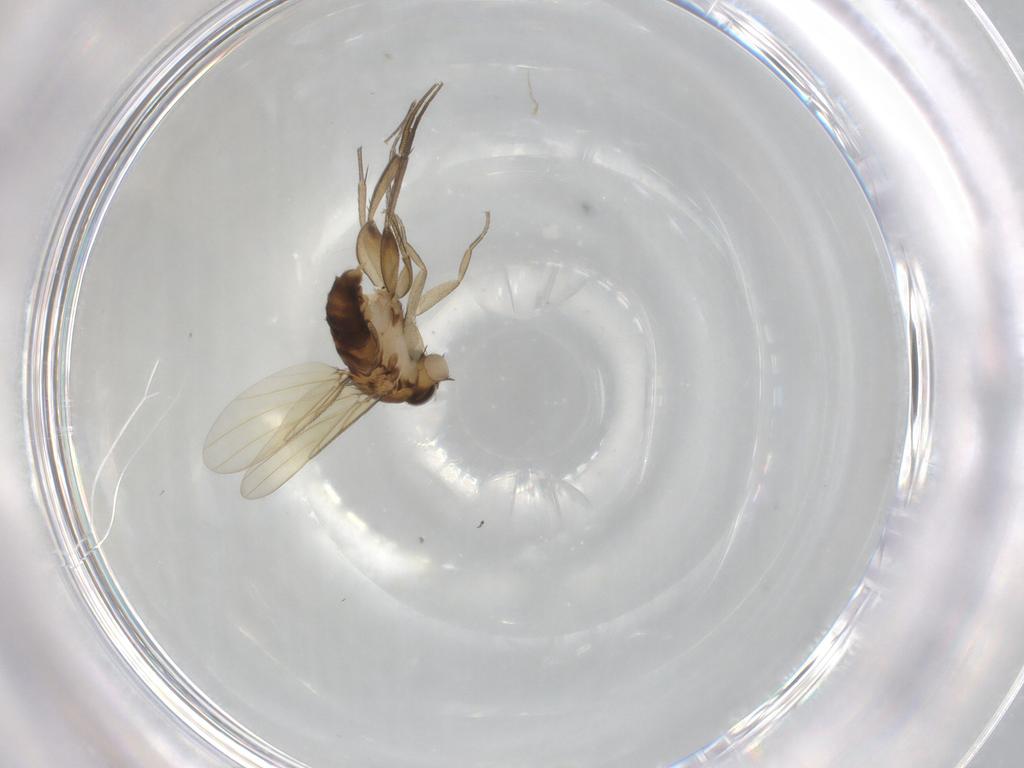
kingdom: Animalia
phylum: Arthropoda
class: Insecta
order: Diptera
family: Phoridae
